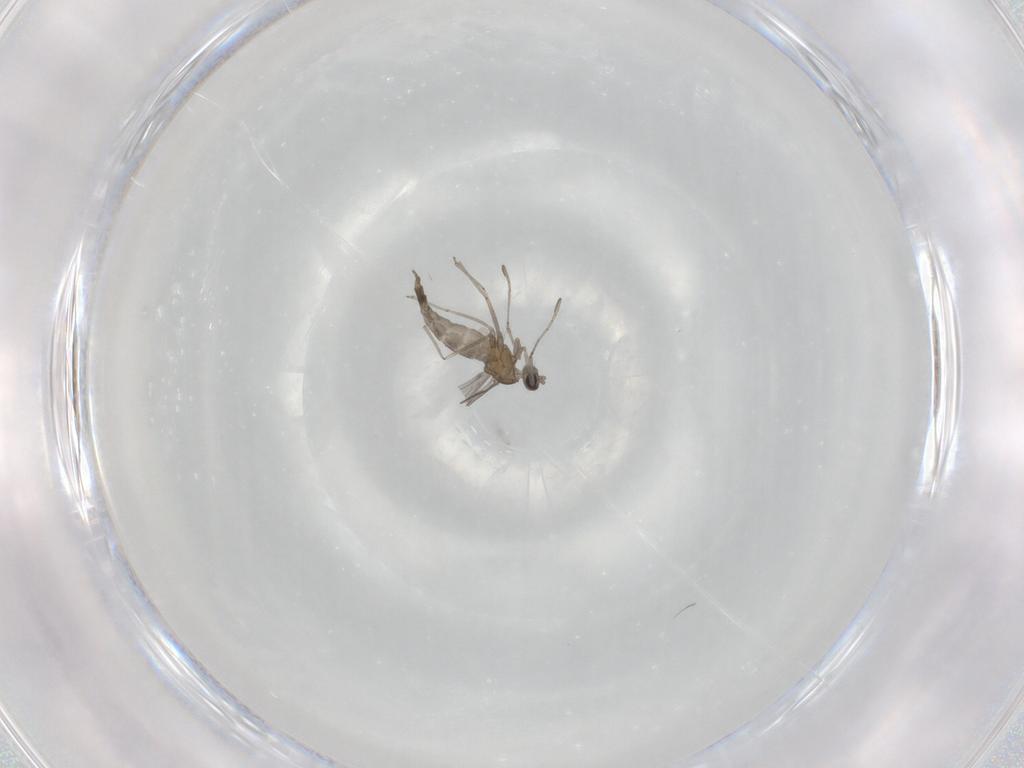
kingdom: Animalia
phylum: Arthropoda
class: Insecta
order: Diptera
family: Cecidomyiidae
